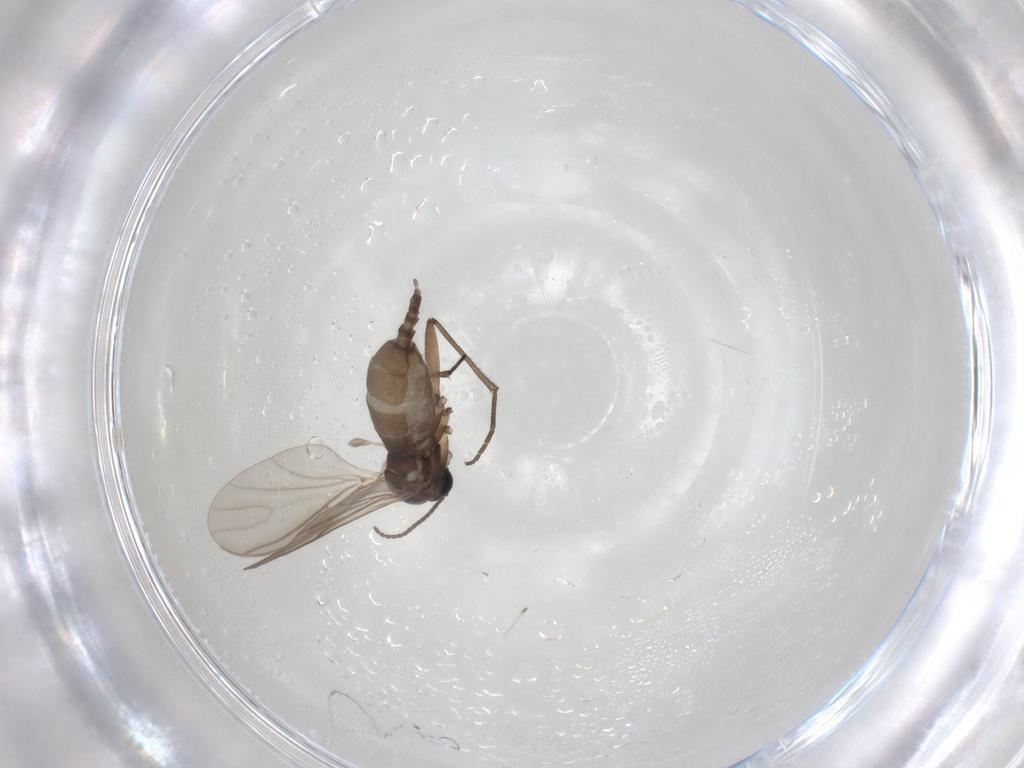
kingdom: Animalia
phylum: Arthropoda
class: Insecta
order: Diptera
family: Sciaridae
